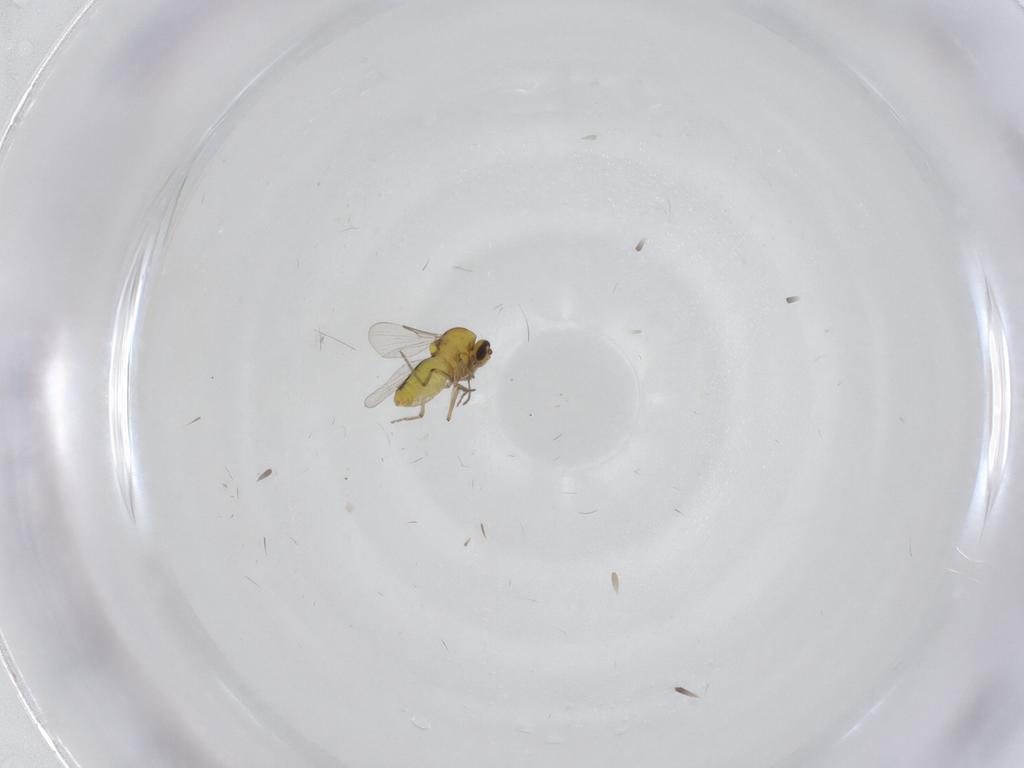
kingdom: Animalia
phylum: Arthropoda
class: Insecta
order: Diptera
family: Ceratopogonidae
